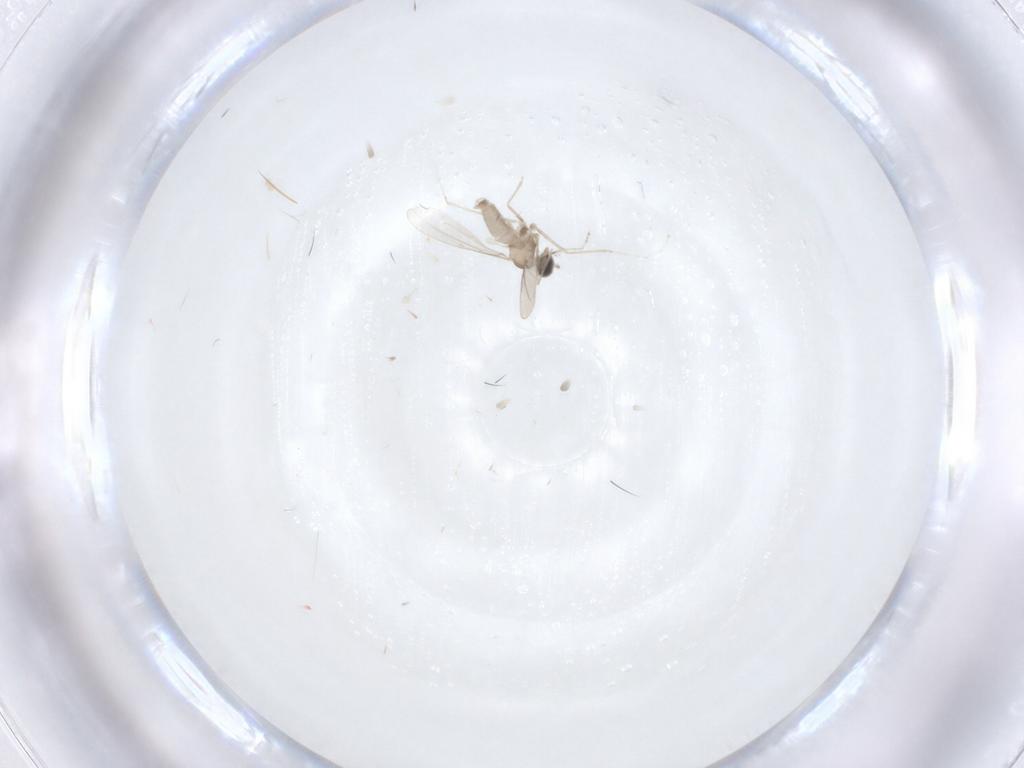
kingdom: Animalia
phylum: Arthropoda
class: Insecta
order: Diptera
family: Cecidomyiidae
